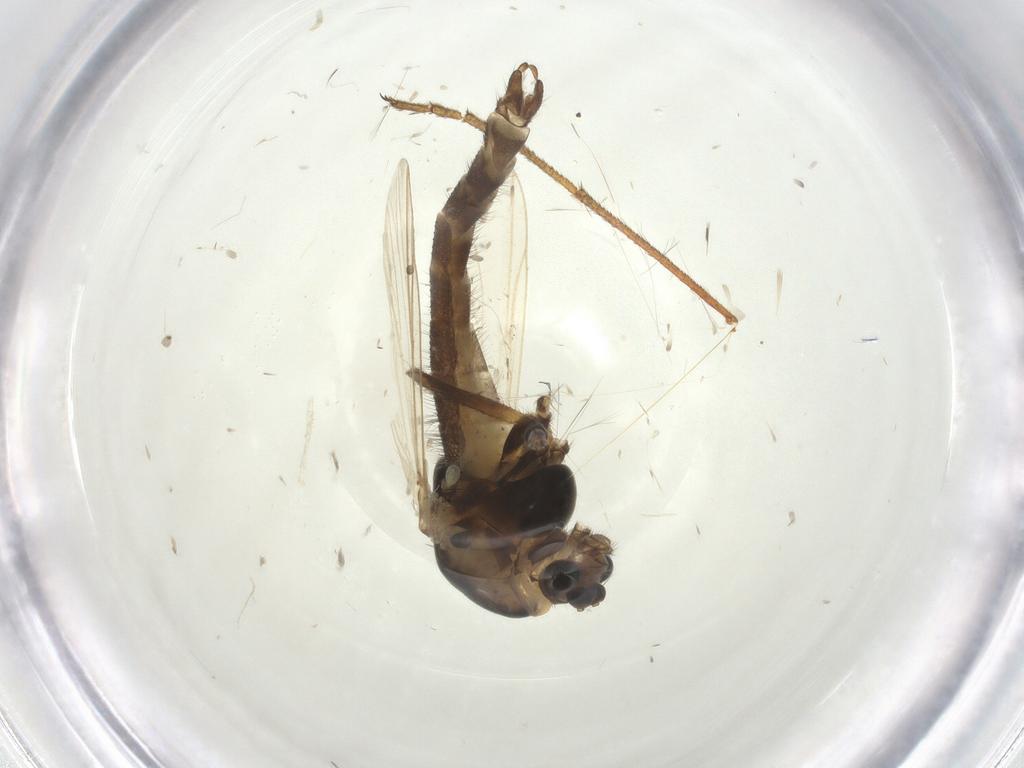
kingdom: Animalia
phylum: Arthropoda
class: Insecta
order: Diptera
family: Chironomidae
